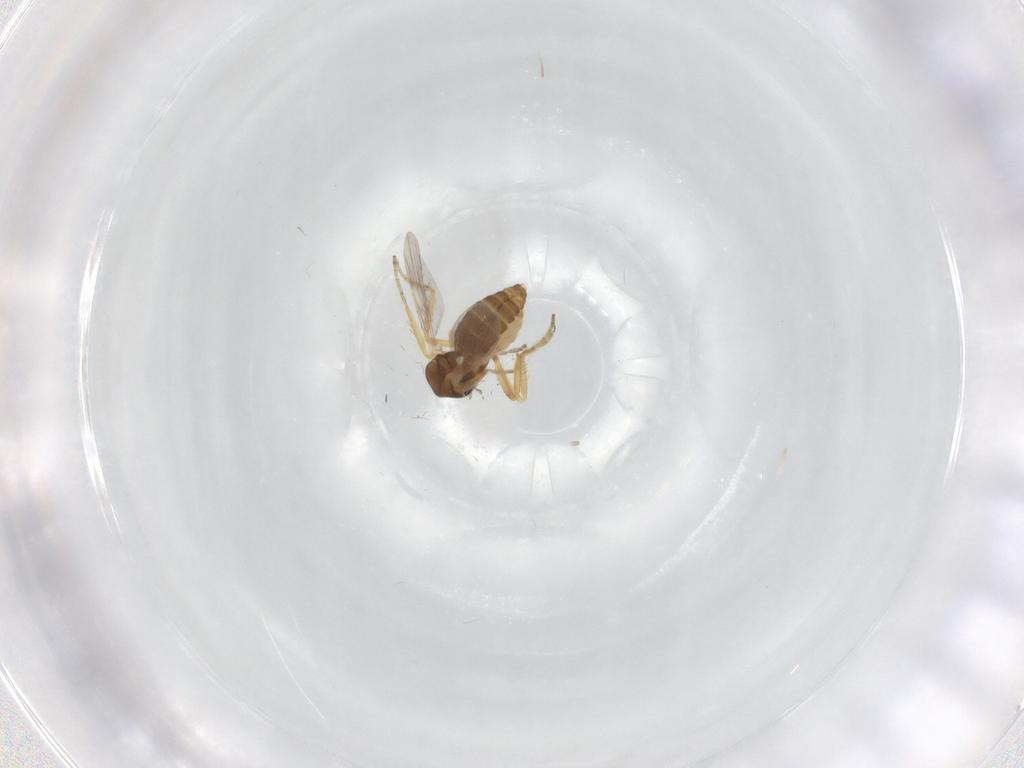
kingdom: Animalia
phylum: Arthropoda
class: Insecta
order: Diptera
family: Ceratopogonidae
